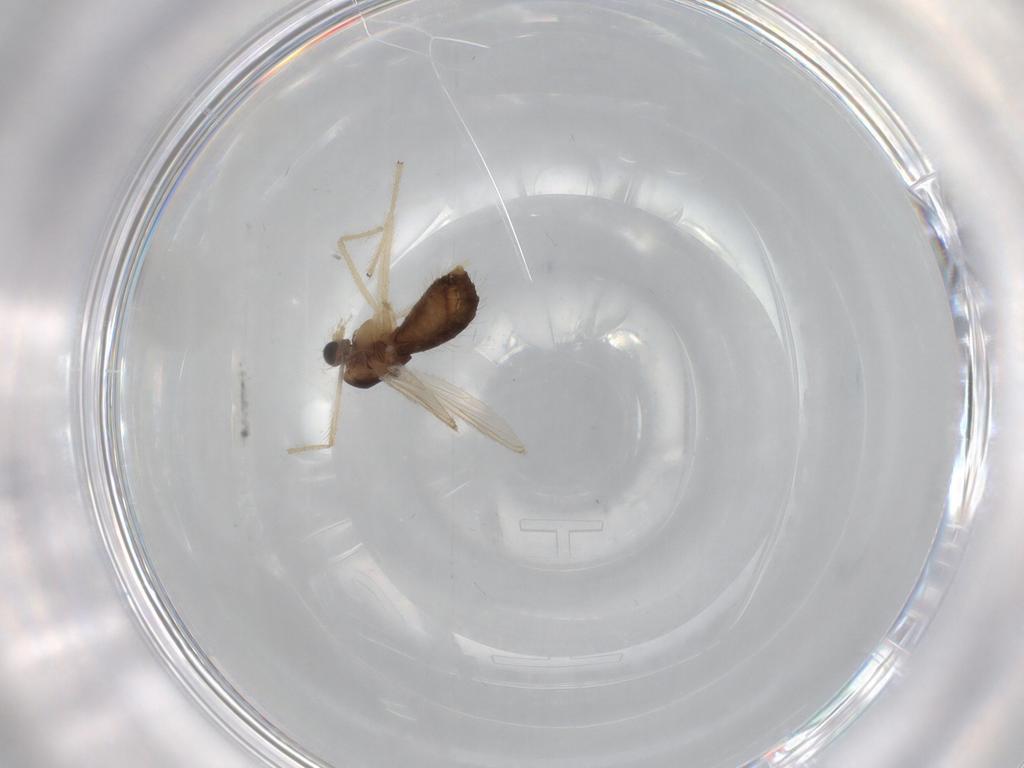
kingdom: Animalia
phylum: Arthropoda
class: Insecta
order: Diptera
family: Chironomidae
